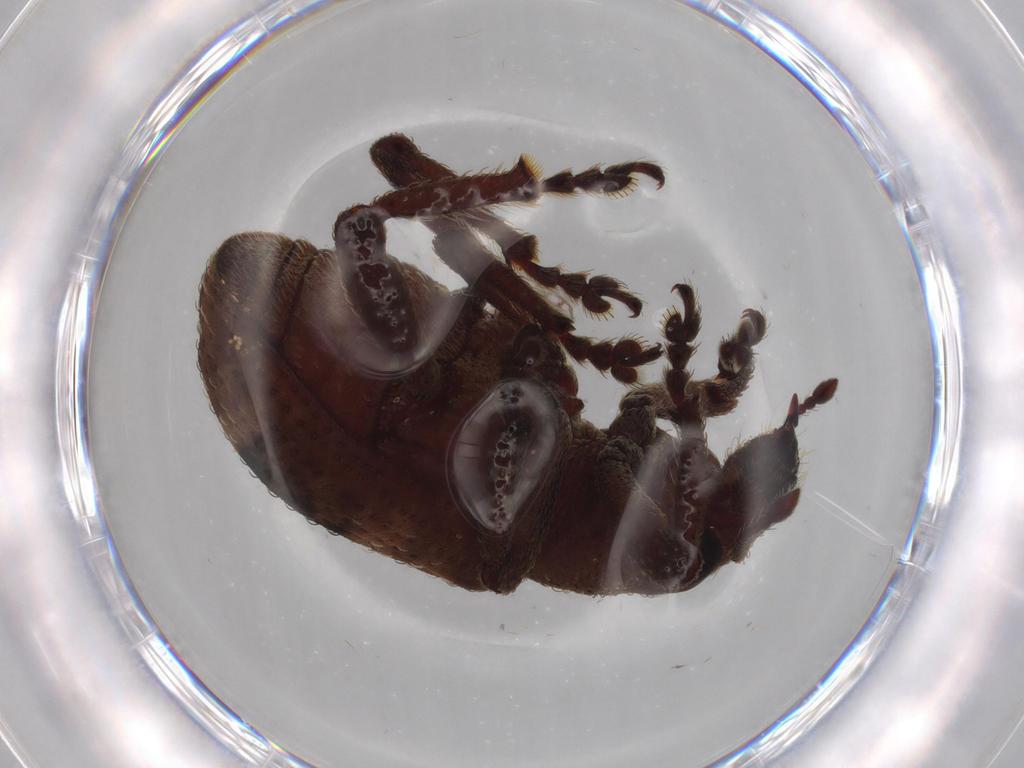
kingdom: Animalia
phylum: Arthropoda
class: Insecta
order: Coleoptera
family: Curculionidae
